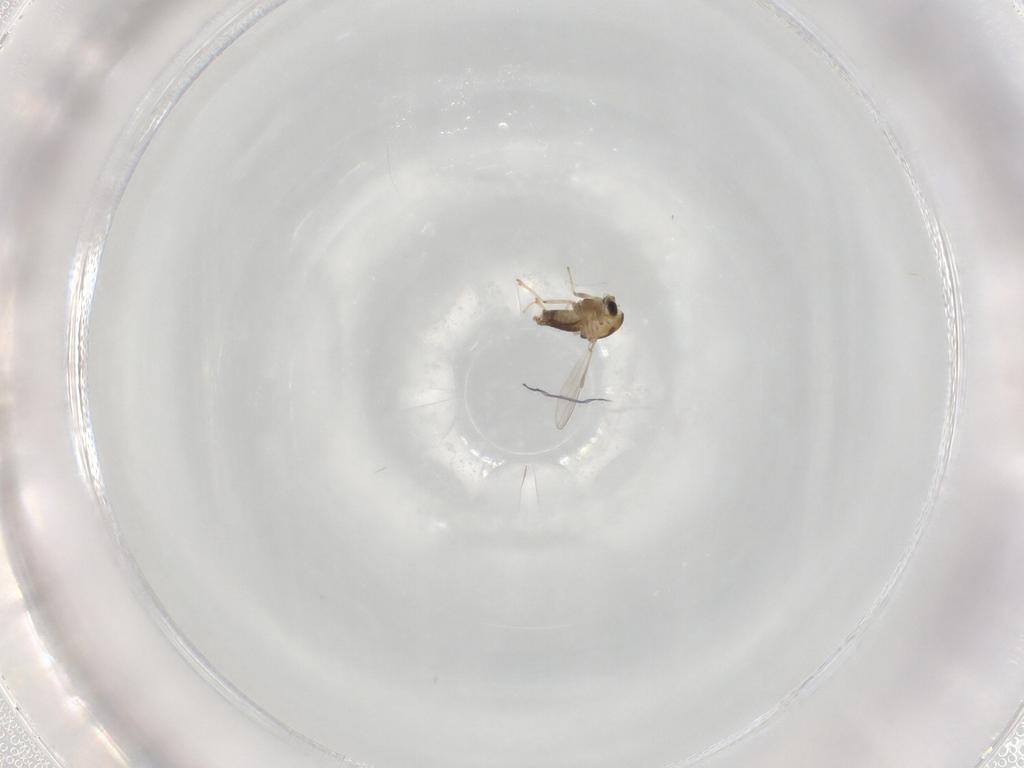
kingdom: Animalia
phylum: Arthropoda
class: Insecta
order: Diptera
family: Chironomidae
